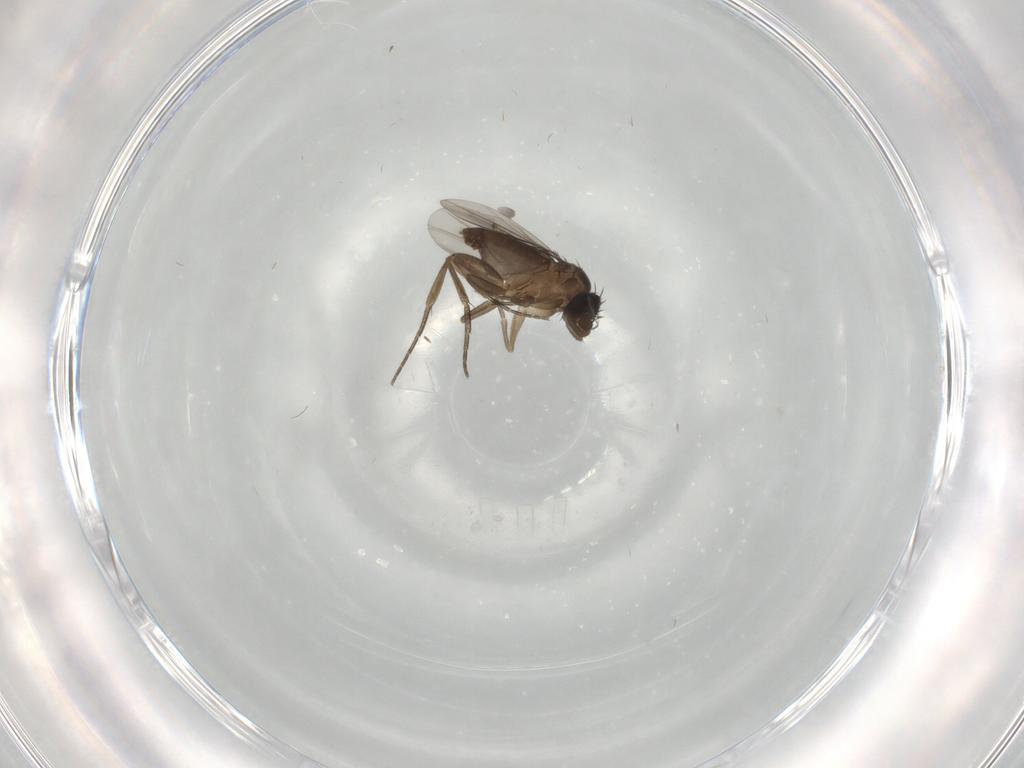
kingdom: Animalia
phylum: Arthropoda
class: Insecta
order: Diptera
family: Phoridae
